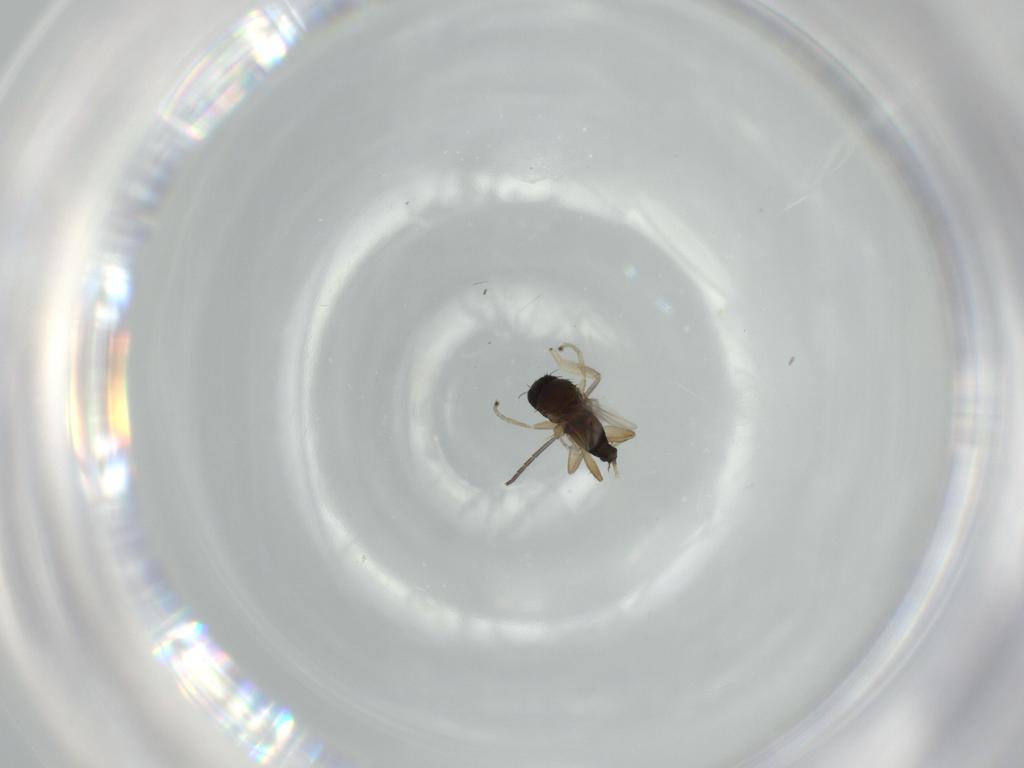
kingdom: Animalia
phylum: Arthropoda
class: Insecta
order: Diptera
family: Phoridae
